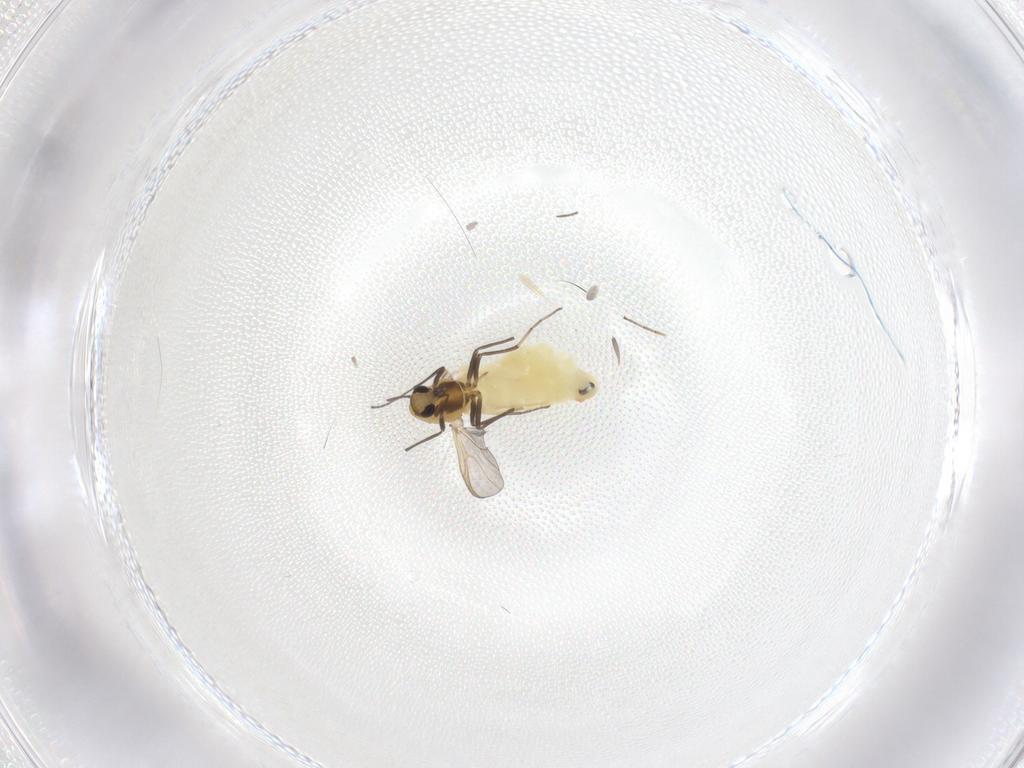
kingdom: Animalia
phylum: Arthropoda
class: Insecta
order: Diptera
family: Chironomidae
